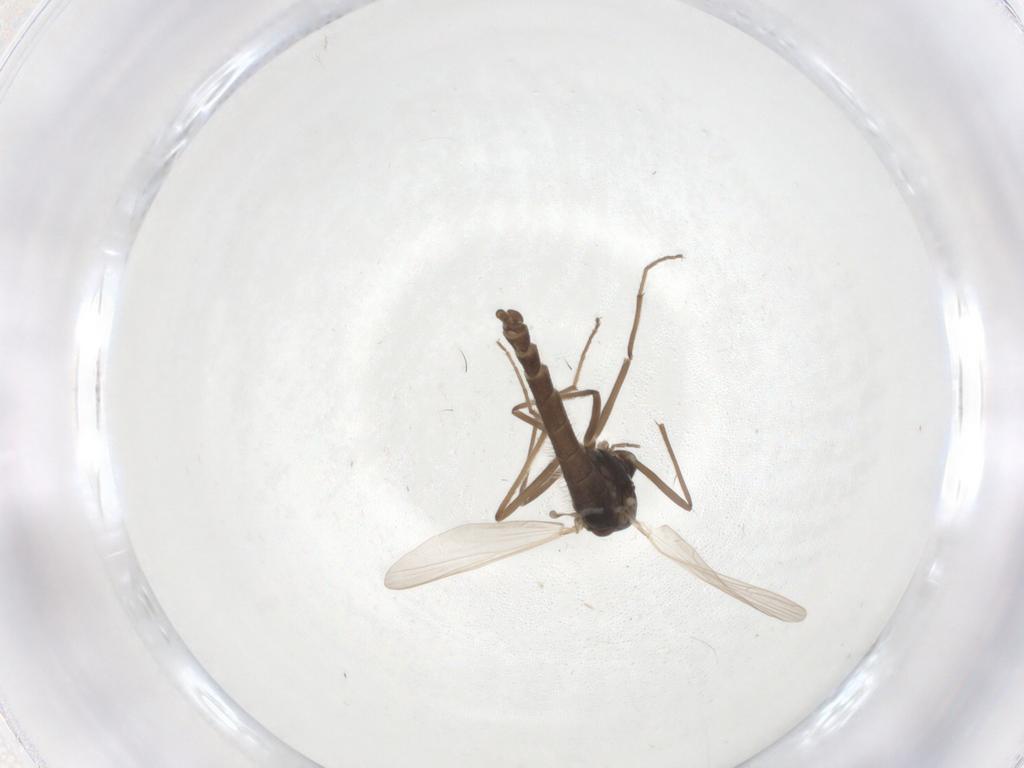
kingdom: Animalia
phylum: Arthropoda
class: Insecta
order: Diptera
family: Chironomidae
